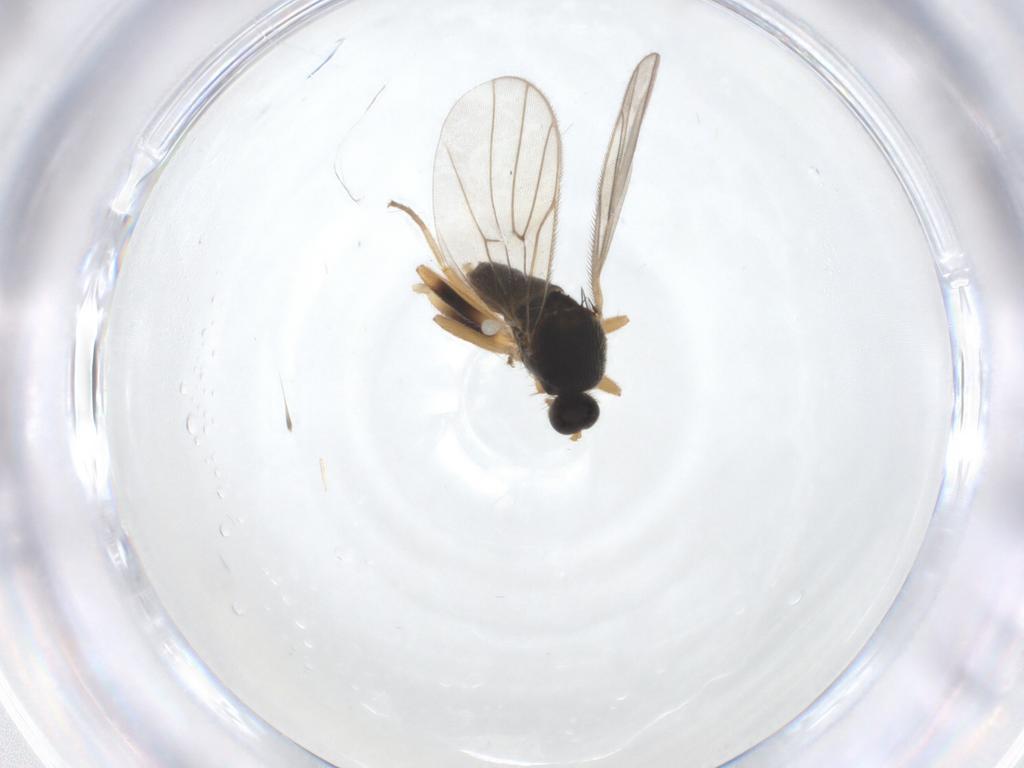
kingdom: Animalia
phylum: Arthropoda
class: Insecta
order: Diptera
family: Hybotidae
